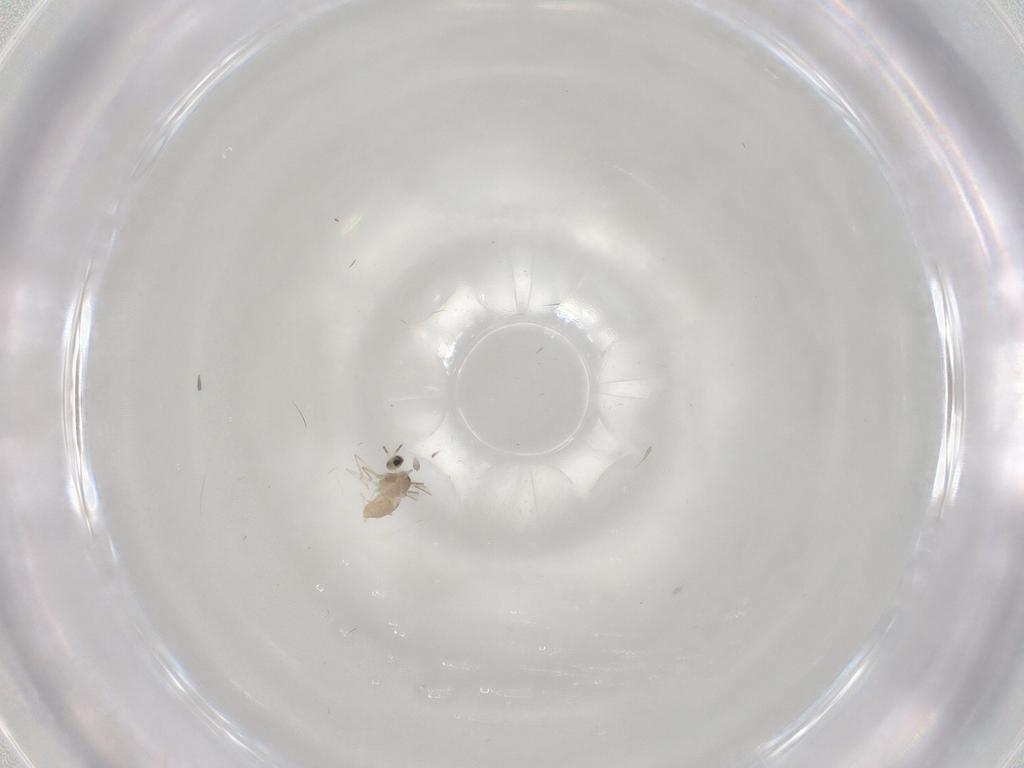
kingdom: Animalia
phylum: Arthropoda
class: Insecta
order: Diptera
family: Cecidomyiidae
